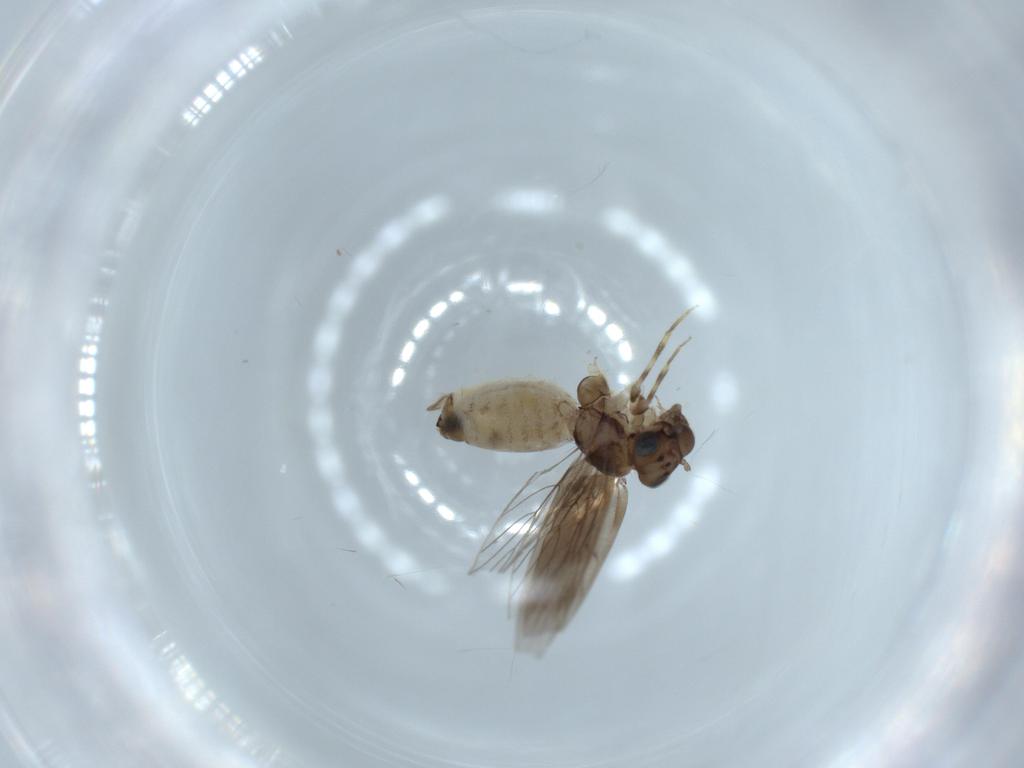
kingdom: Animalia
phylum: Arthropoda
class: Insecta
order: Psocodea
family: Lepidopsocidae
